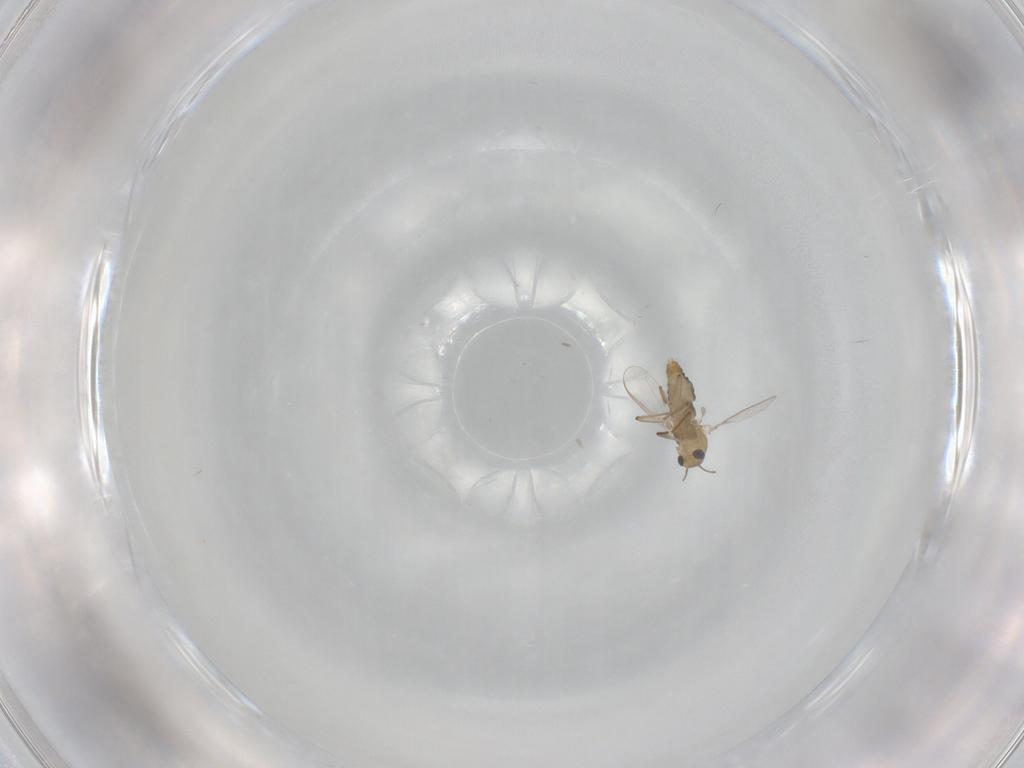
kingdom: Animalia
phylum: Arthropoda
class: Insecta
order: Diptera
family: Chironomidae
